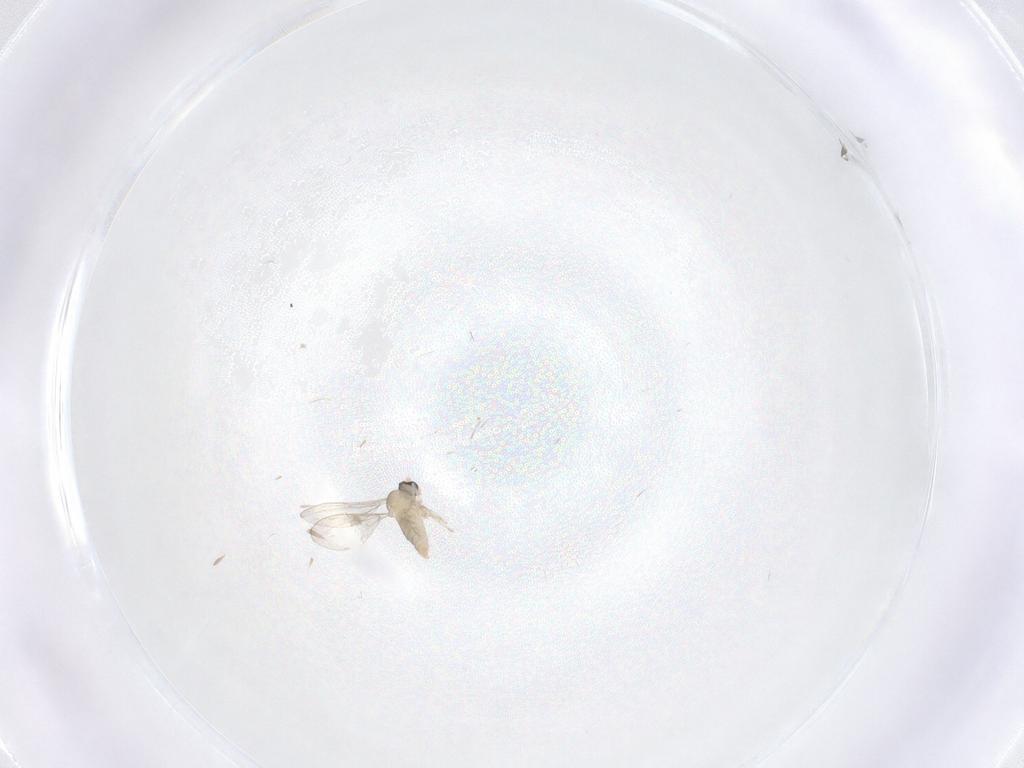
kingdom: Animalia
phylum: Arthropoda
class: Insecta
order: Diptera
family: Cecidomyiidae
